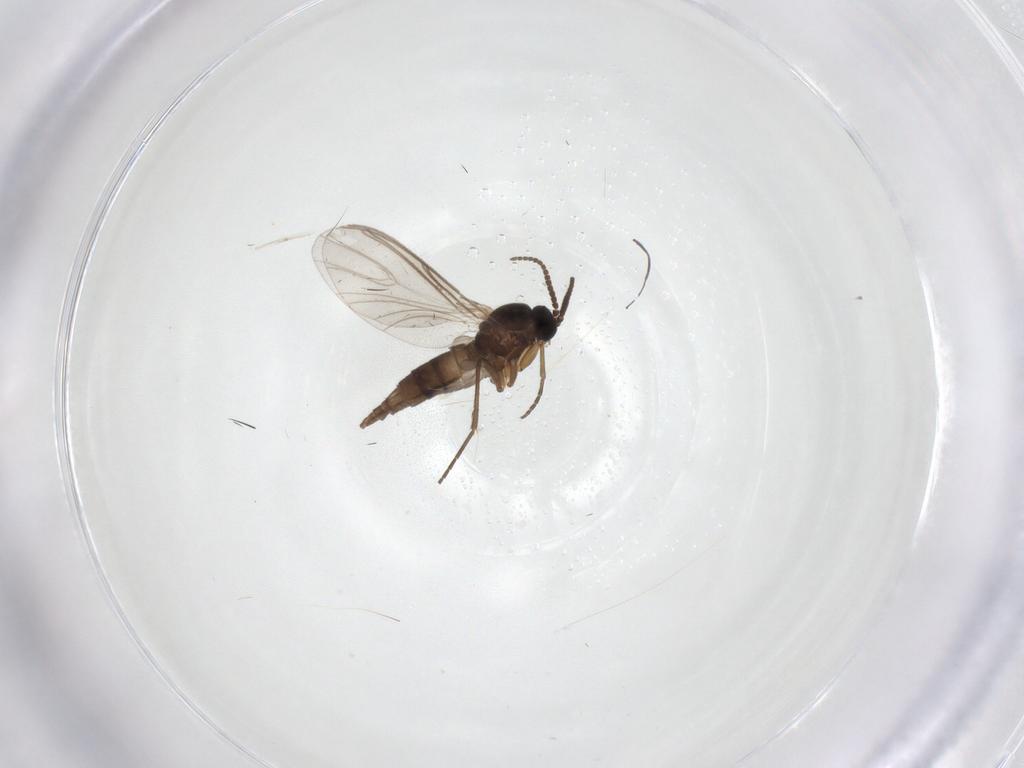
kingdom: Animalia
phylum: Arthropoda
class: Insecta
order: Diptera
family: Sciaridae
